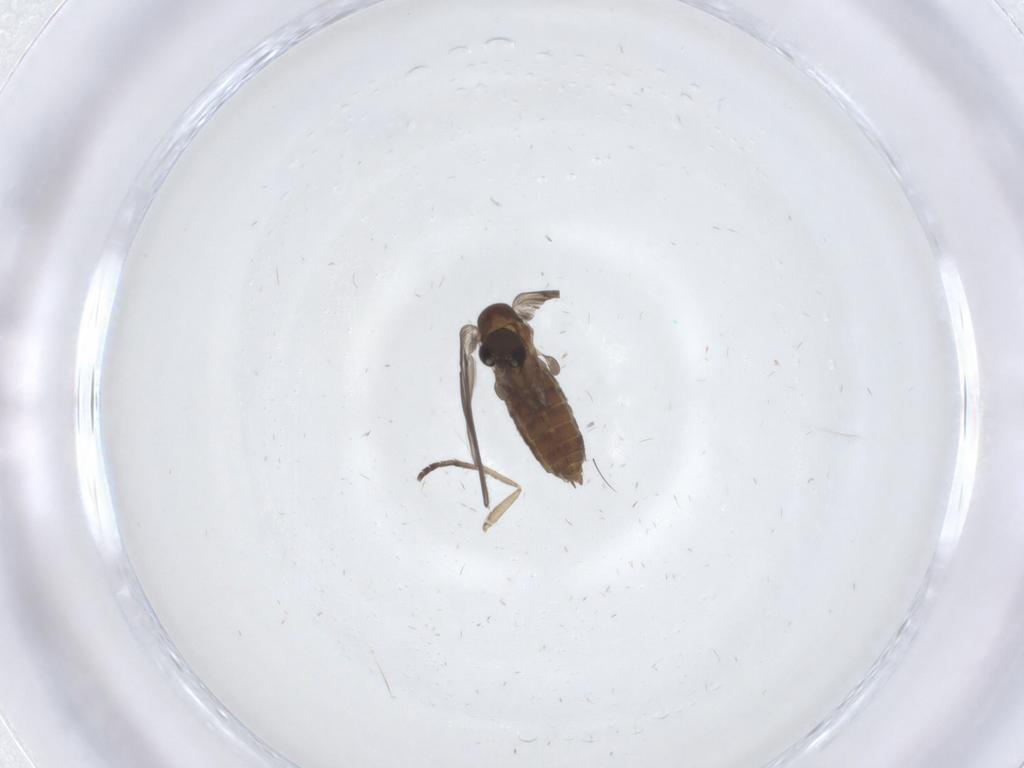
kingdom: Animalia
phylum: Arthropoda
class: Insecta
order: Diptera
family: Psychodidae
